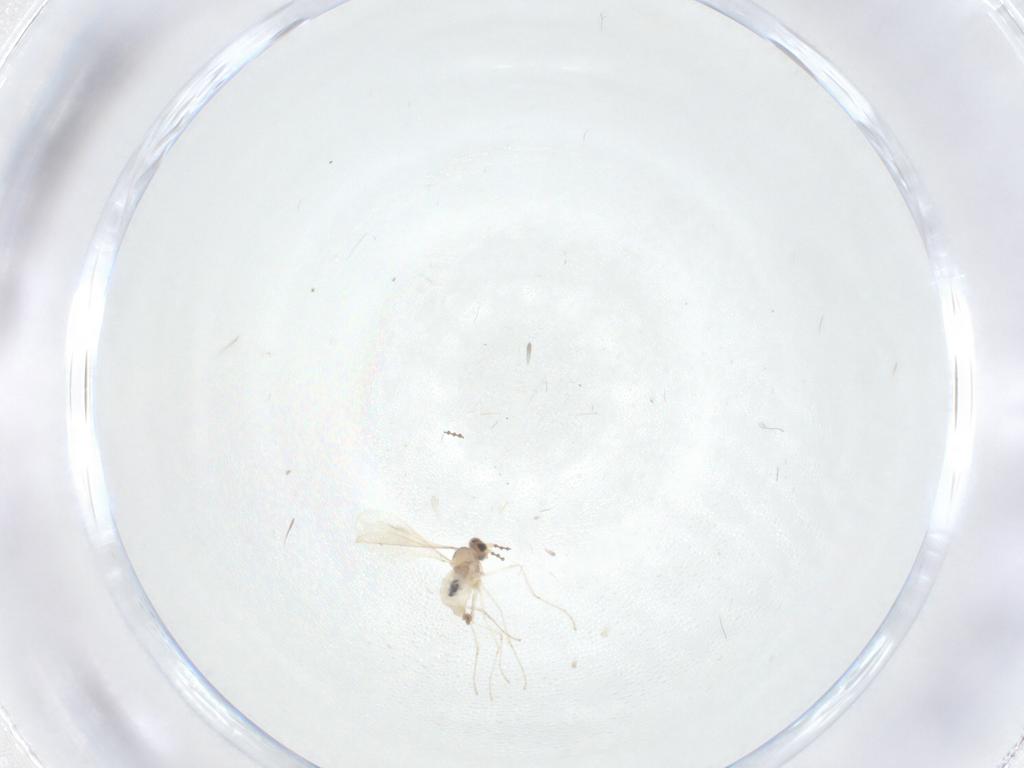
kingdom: Animalia
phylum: Arthropoda
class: Insecta
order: Diptera
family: Cecidomyiidae
